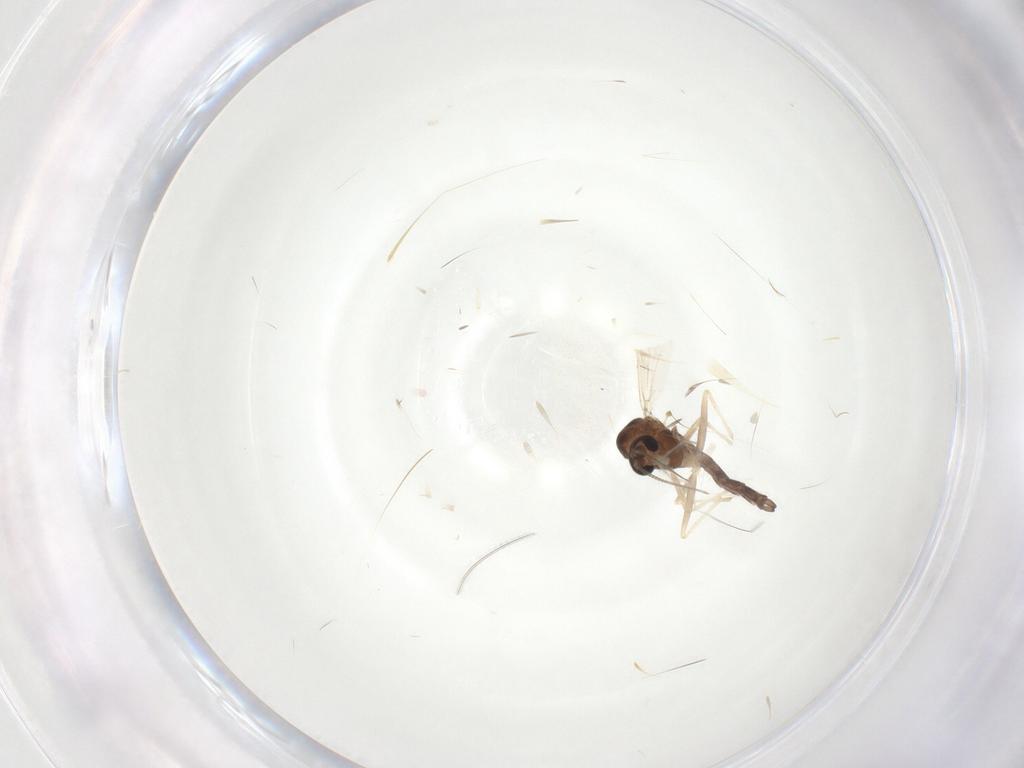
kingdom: Animalia
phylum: Arthropoda
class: Insecta
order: Diptera
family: Chironomidae
